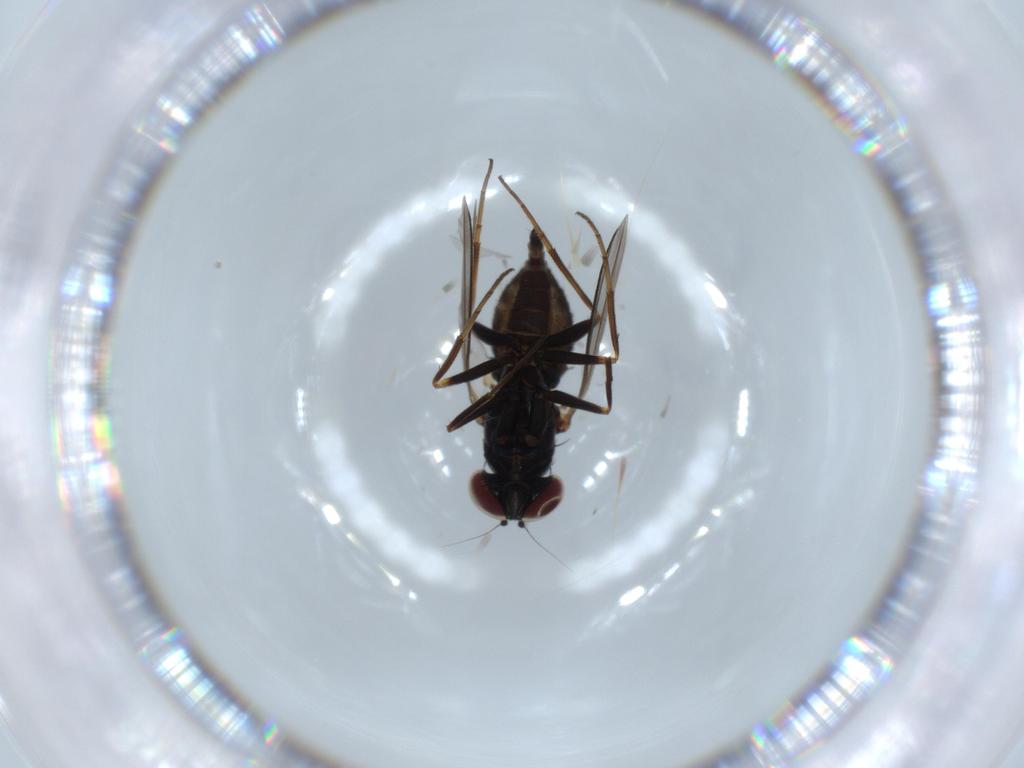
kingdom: Animalia
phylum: Arthropoda
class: Insecta
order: Diptera
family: Dolichopodidae
